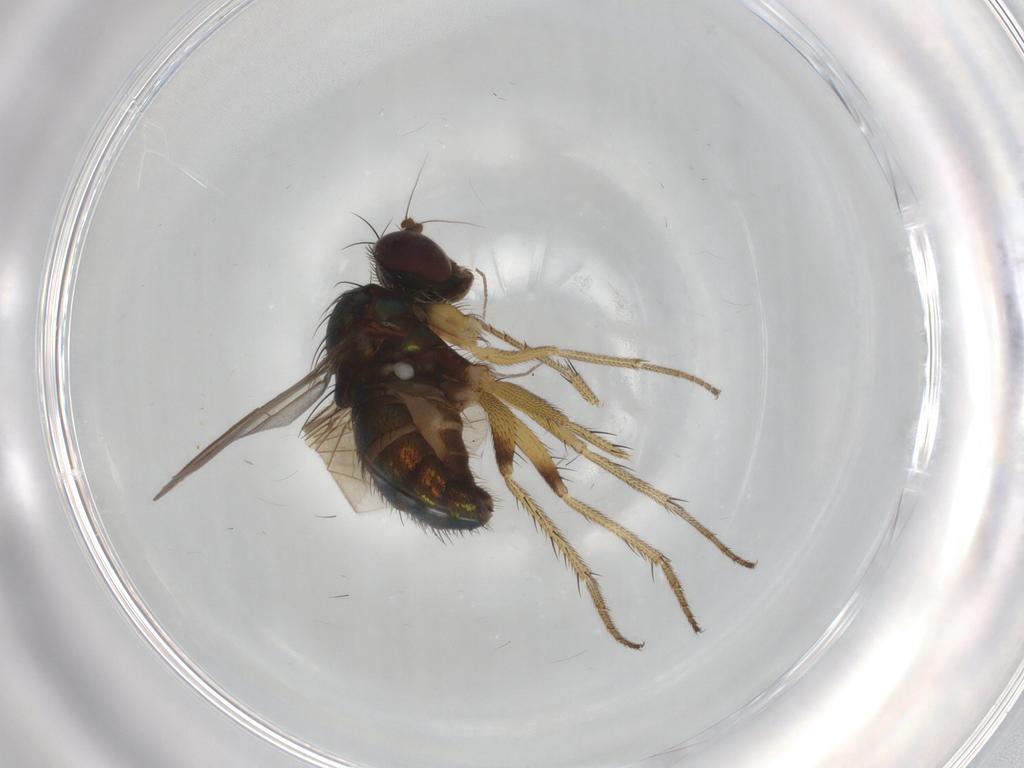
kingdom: Animalia
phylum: Arthropoda
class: Insecta
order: Diptera
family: Dolichopodidae
